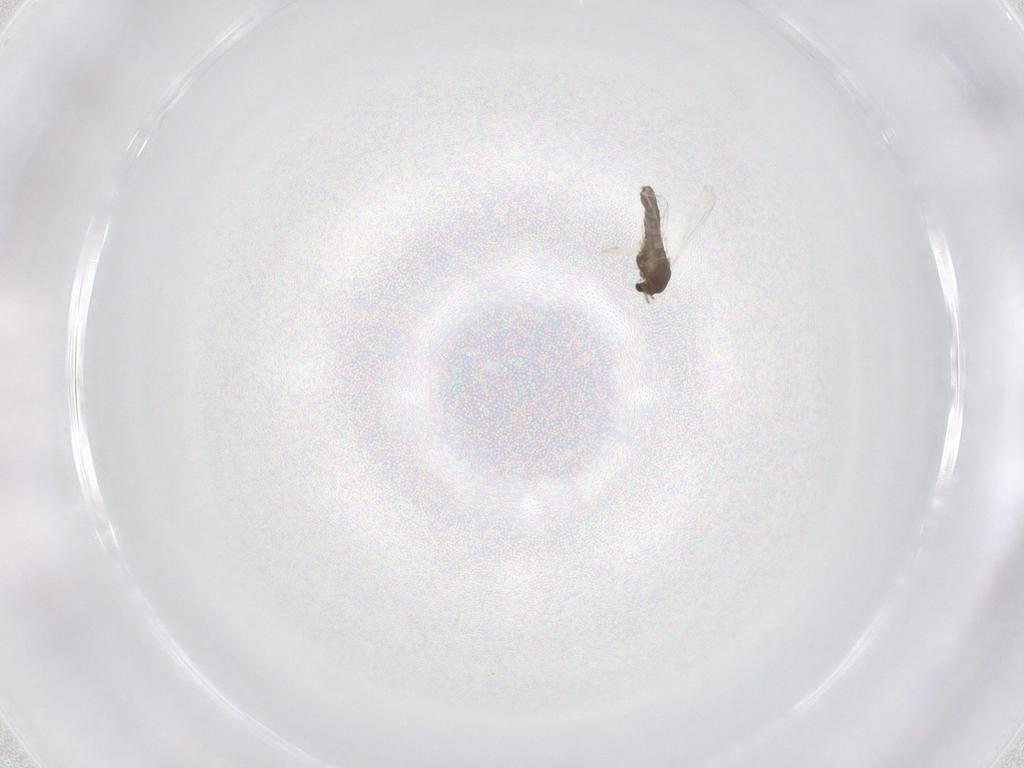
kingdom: Animalia
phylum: Arthropoda
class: Insecta
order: Diptera
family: Chironomidae
